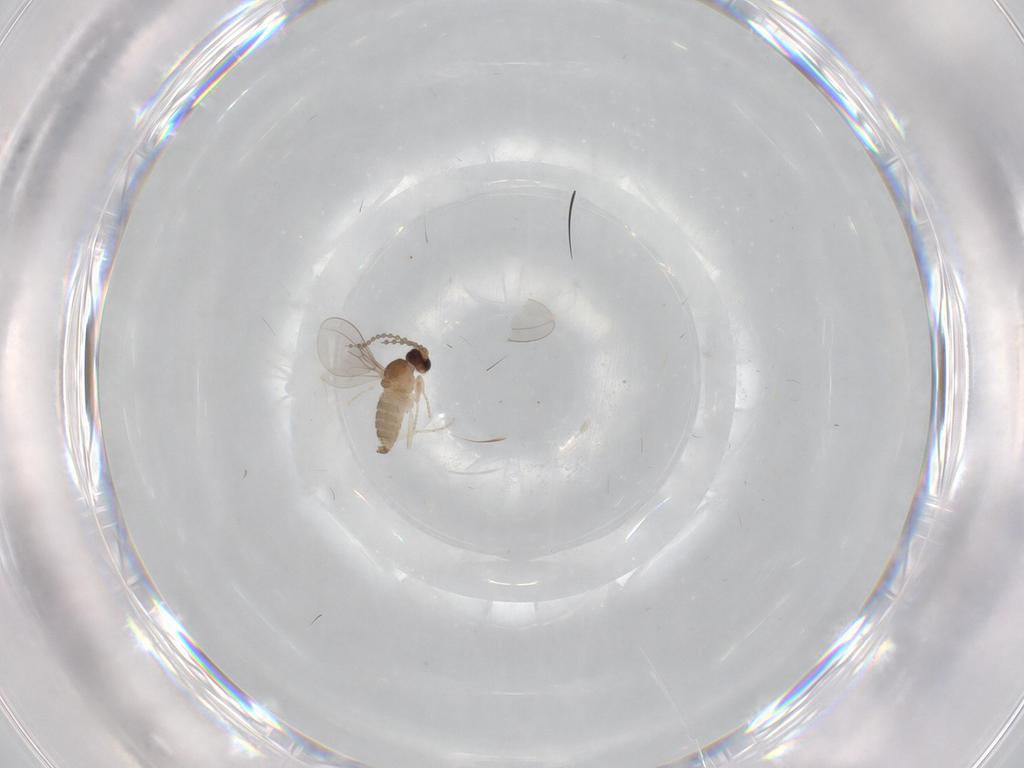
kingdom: Animalia
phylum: Arthropoda
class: Insecta
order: Diptera
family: Cecidomyiidae
